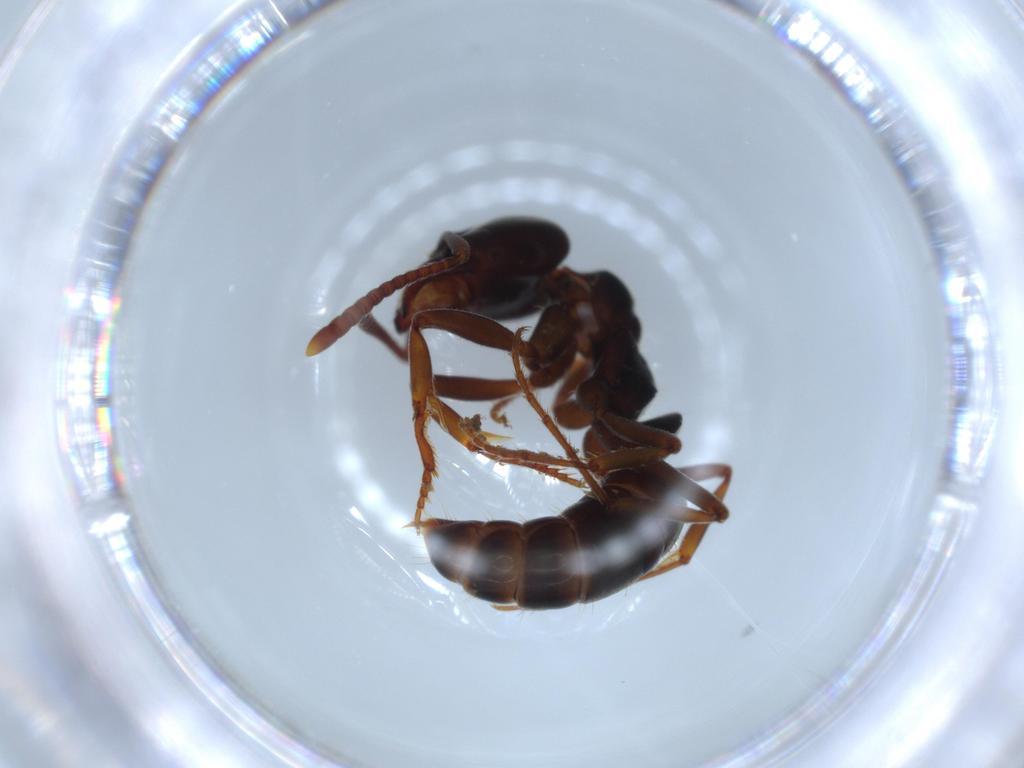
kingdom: Animalia
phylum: Arthropoda
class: Insecta
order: Hymenoptera
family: Formicidae
